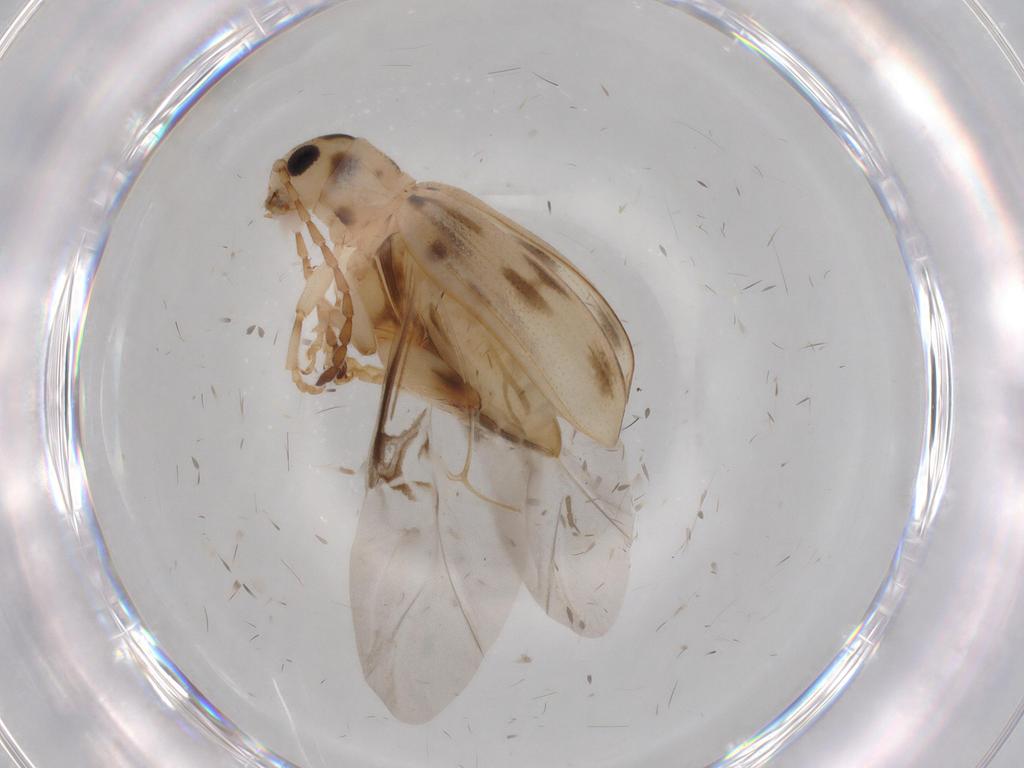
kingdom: Animalia
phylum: Arthropoda
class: Insecta
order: Coleoptera
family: Chrysomelidae
